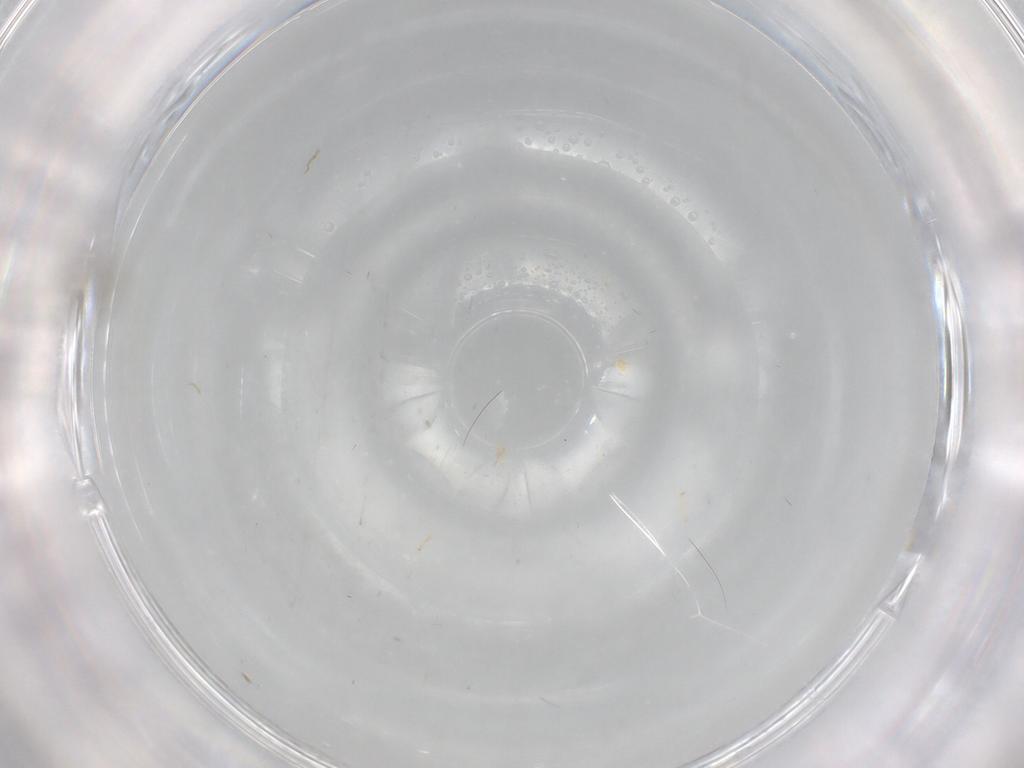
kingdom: Animalia
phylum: Arthropoda
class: Insecta
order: Diptera
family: Cecidomyiidae
